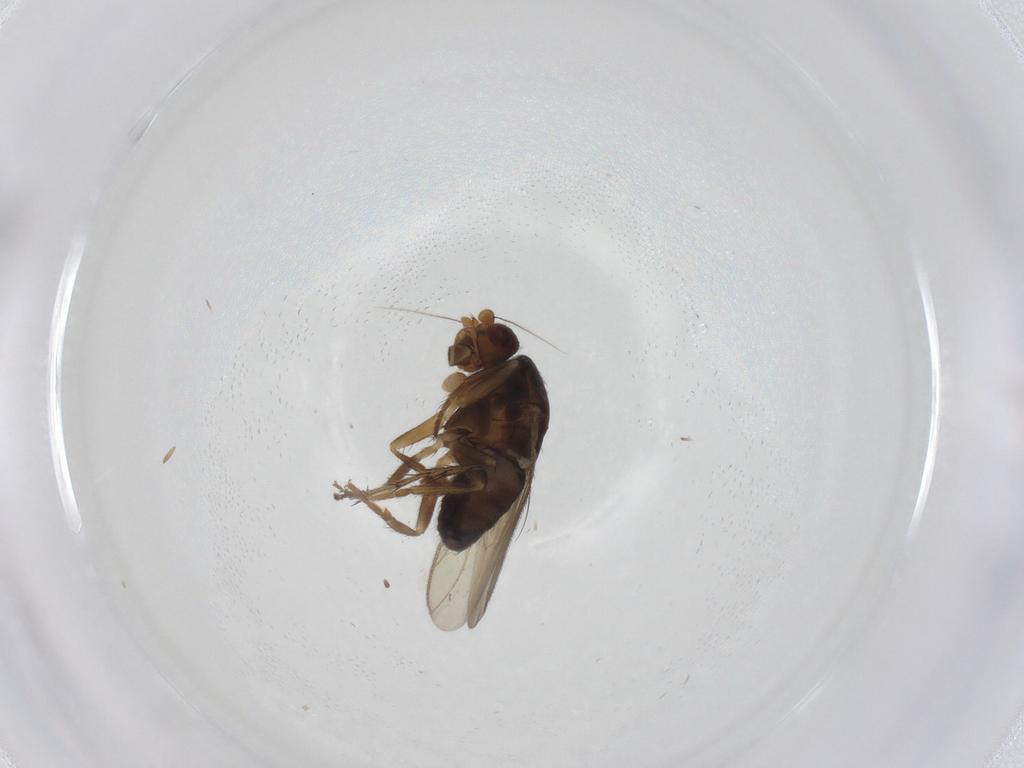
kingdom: Animalia
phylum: Arthropoda
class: Insecta
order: Diptera
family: Sphaeroceridae
